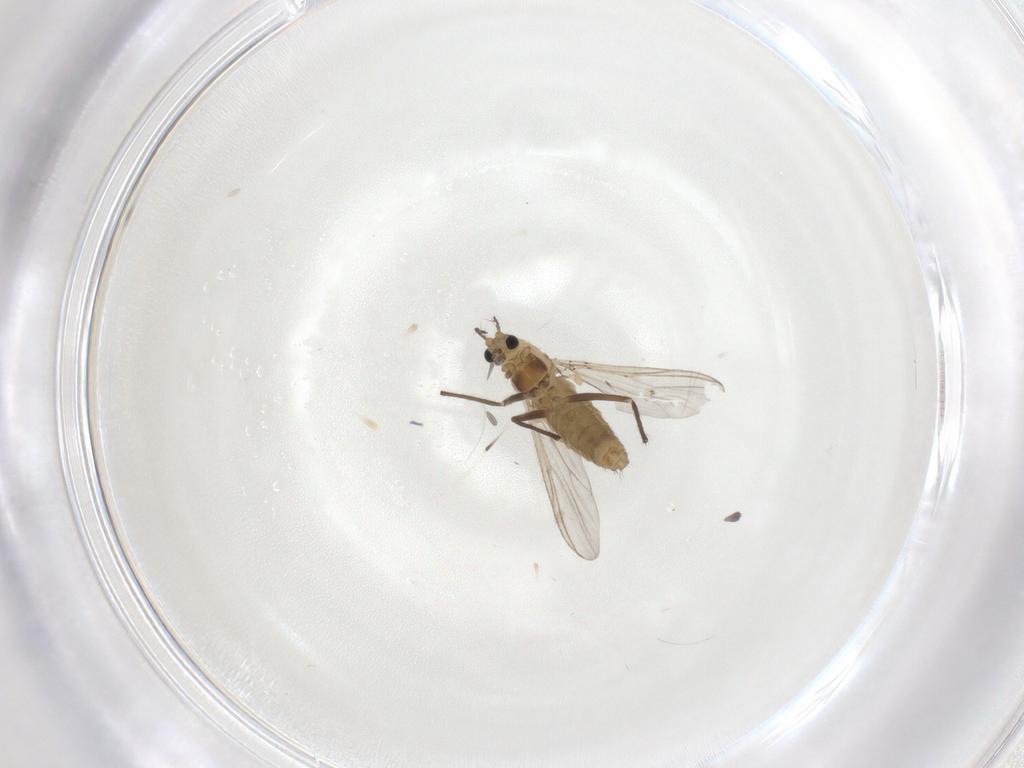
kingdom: Animalia
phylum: Arthropoda
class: Insecta
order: Diptera
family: Chironomidae
